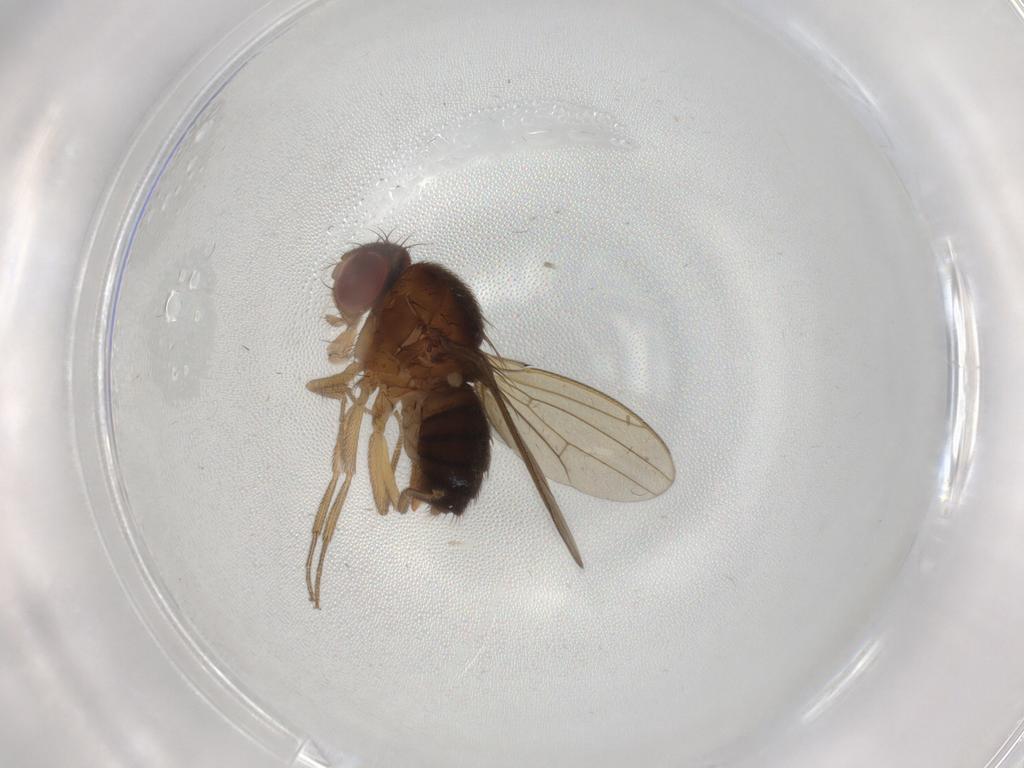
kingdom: Animalia
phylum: Arthropoda
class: Insecta
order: Diptera
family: Drosophilidae
